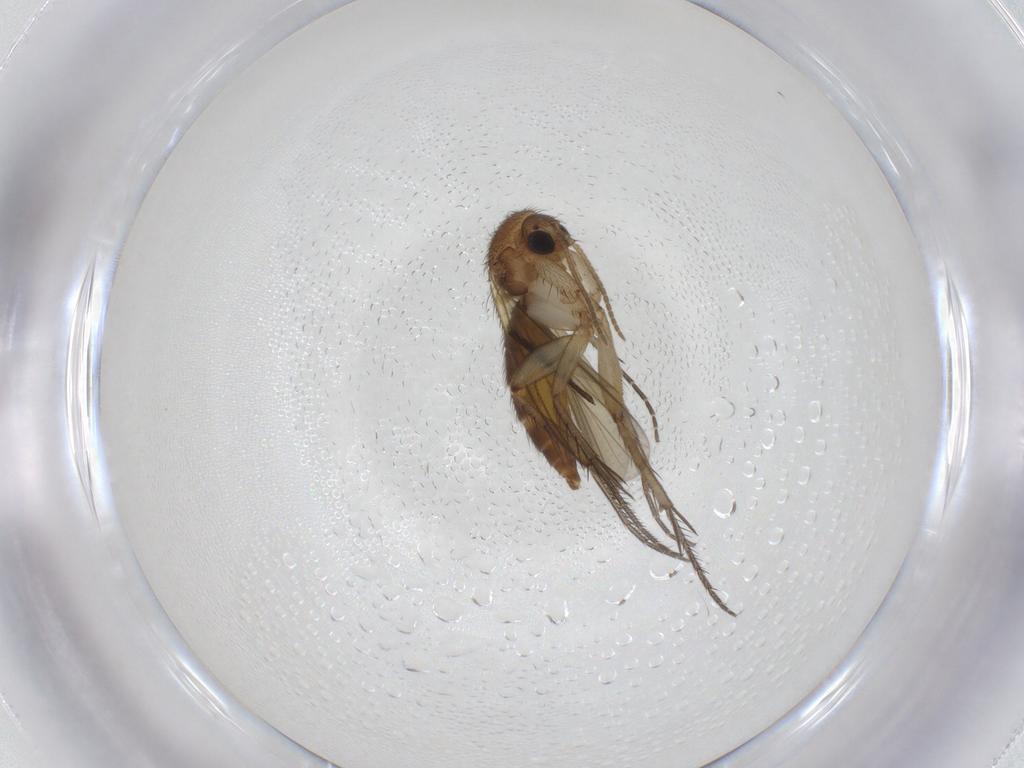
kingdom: Animalia
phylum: Arthropoda
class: Insecta
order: Diptera
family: Mycetophilidae
